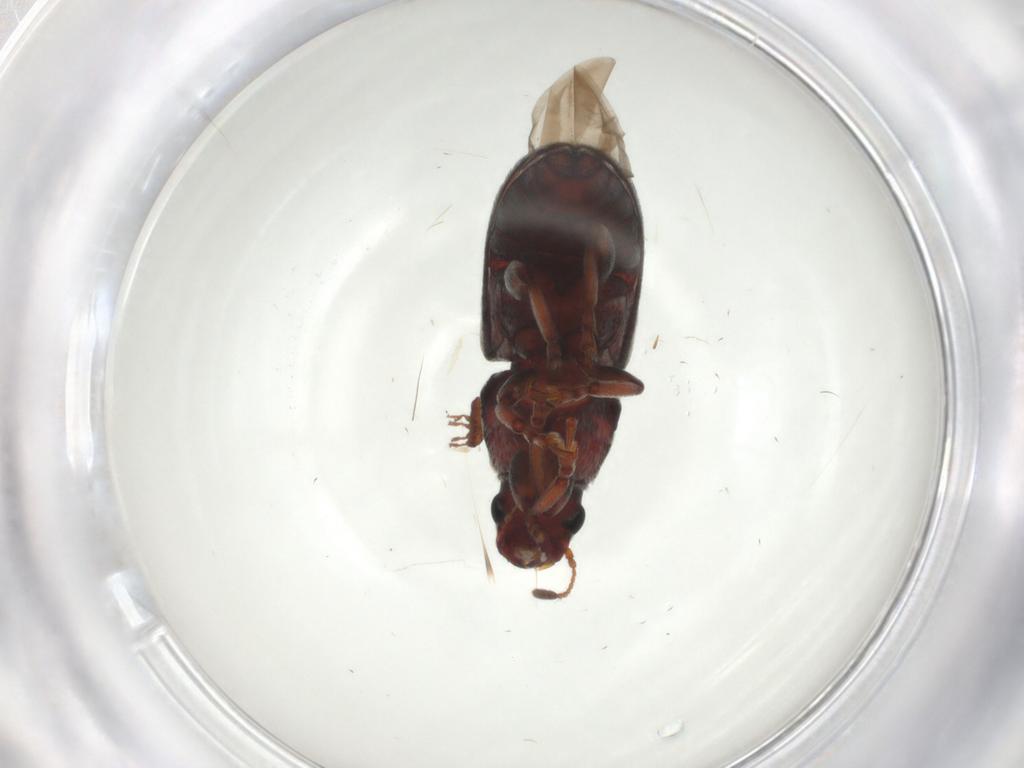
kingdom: Animalia
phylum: Arthropoda
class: Insecta
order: Coleoptera
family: Anthribidae
